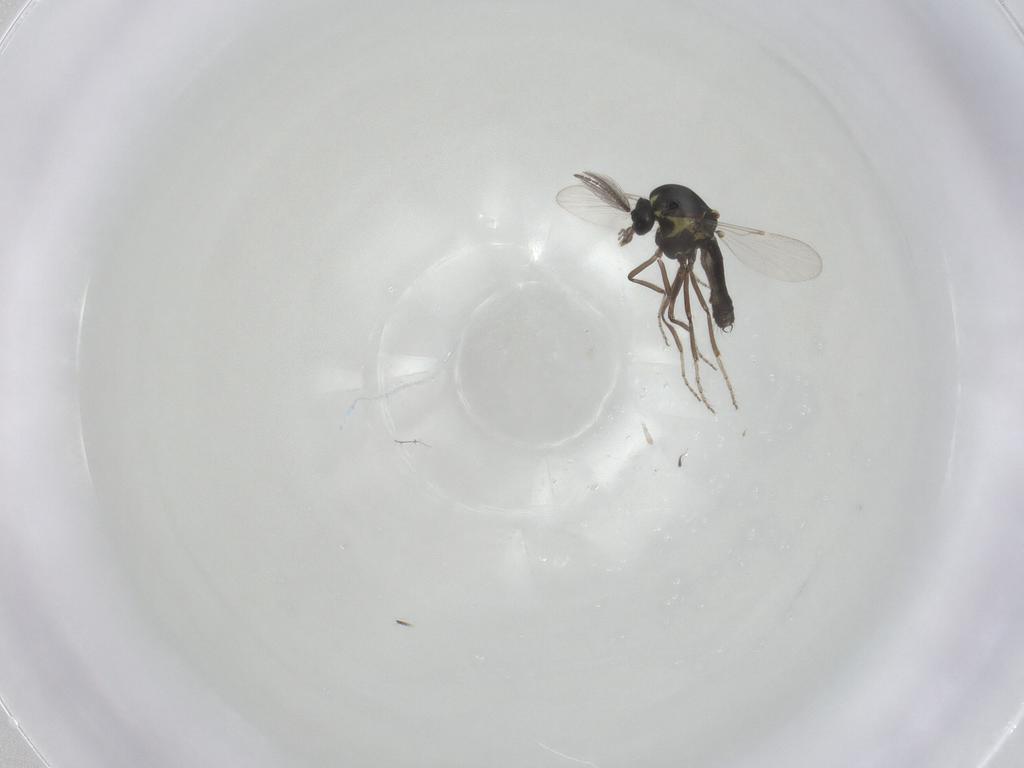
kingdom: Animalia
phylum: Arthropoda
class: Insecta
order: Diptera
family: Ceratopogonidae
